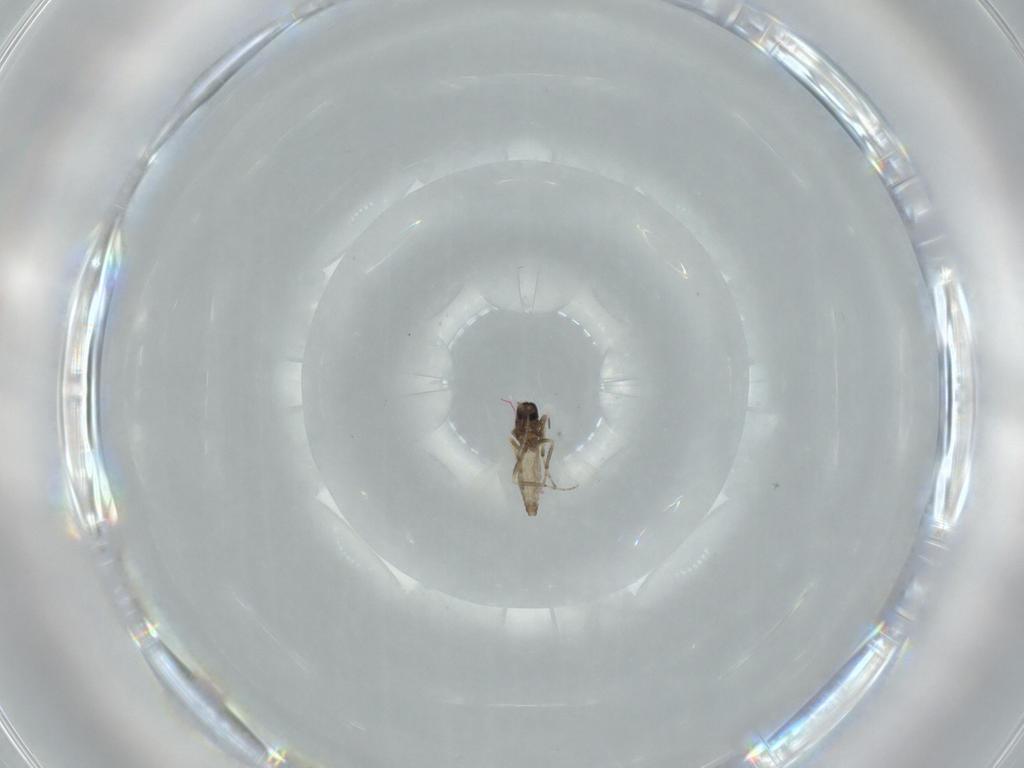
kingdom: Animalia
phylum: Arthropoda
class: Insecta
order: Diptera
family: Ceratopogonidae
